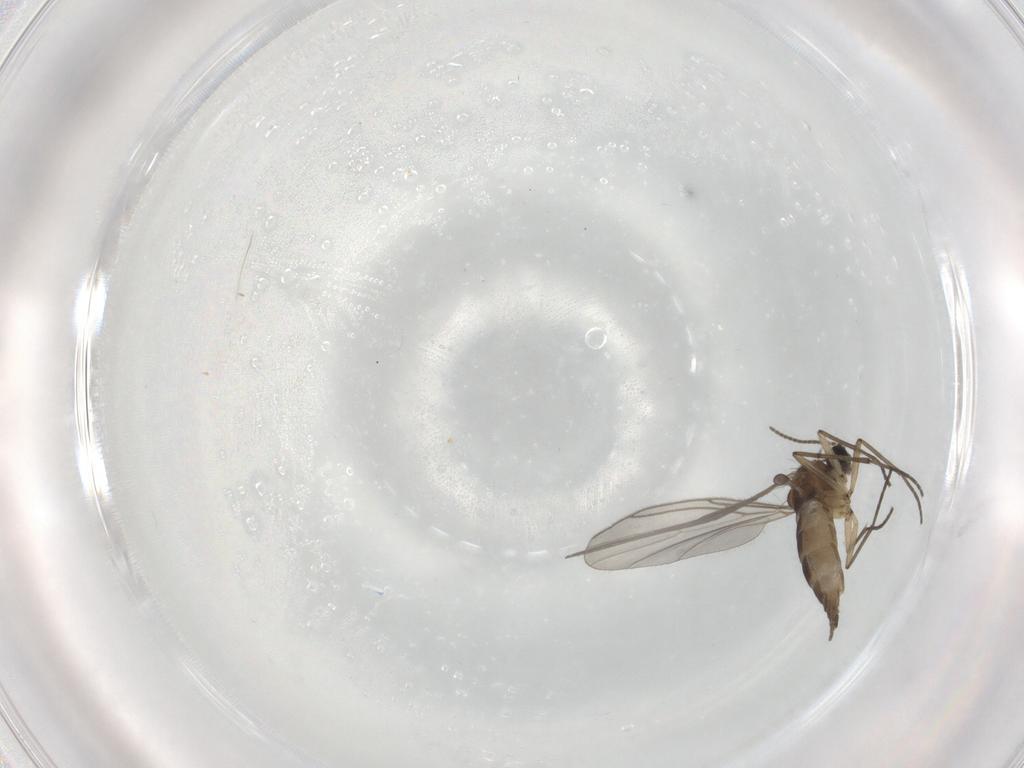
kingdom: Animalia
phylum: Arthropoda
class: Insecta
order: Diptera
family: Sciaridae
